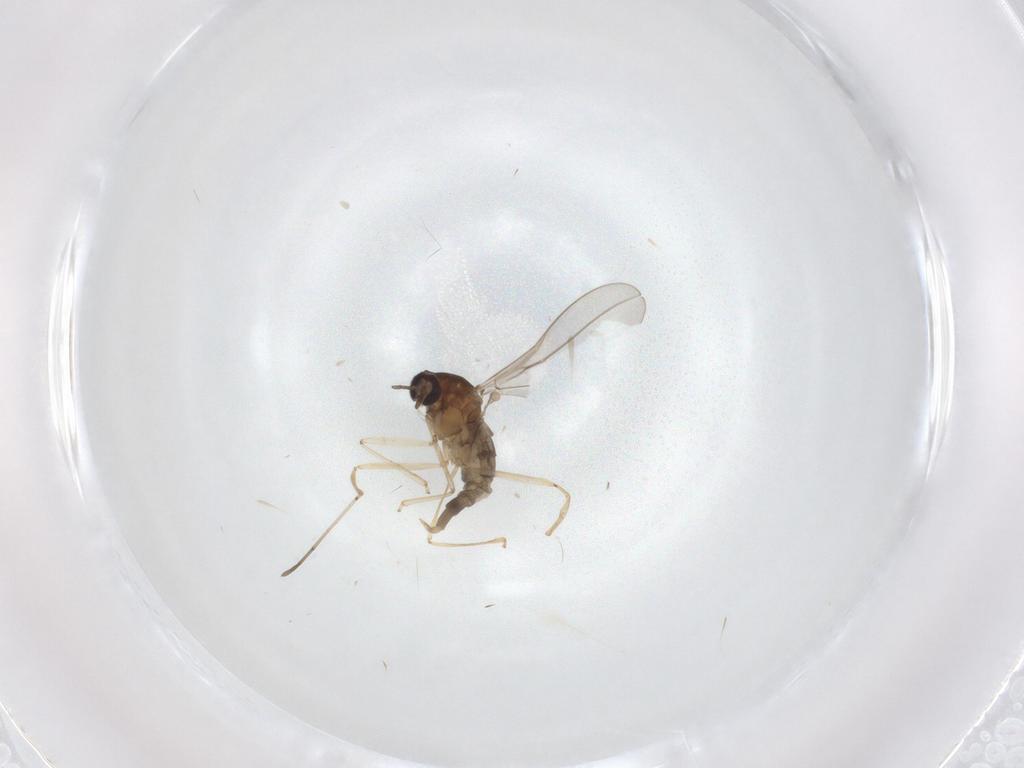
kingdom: Animalia
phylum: Arthropoda
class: Insecta
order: Diptera
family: Cecidomyiidae
